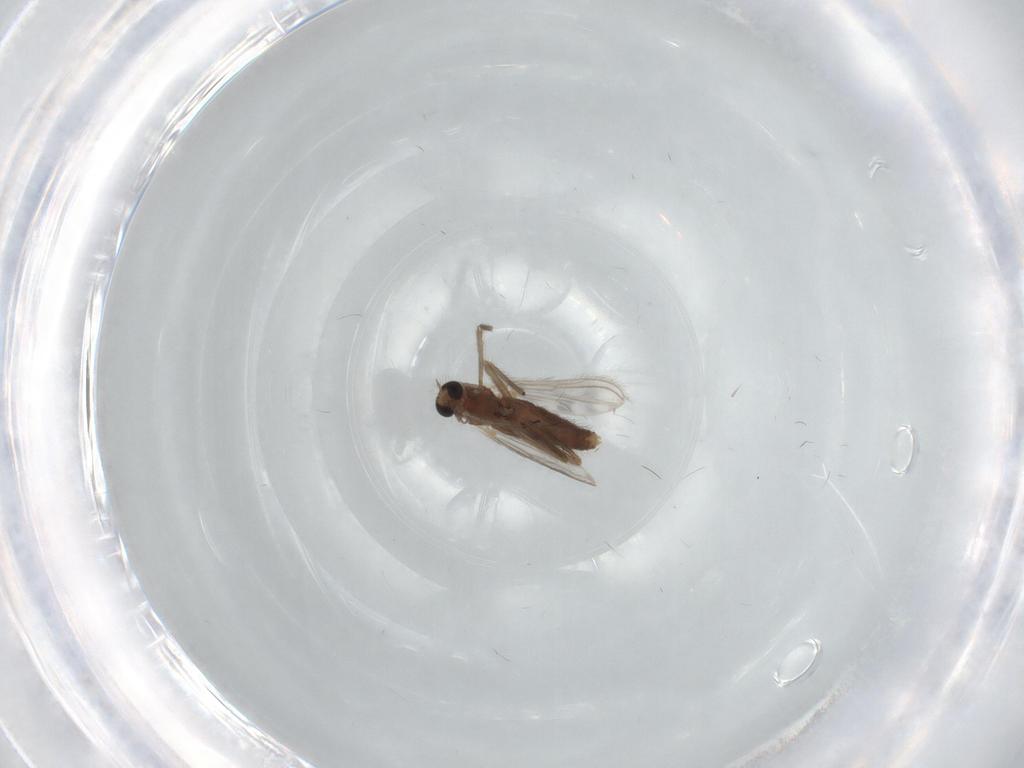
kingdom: Animalia
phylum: Arthropoda
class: Insecta
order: Diptera
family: Chironomidae
